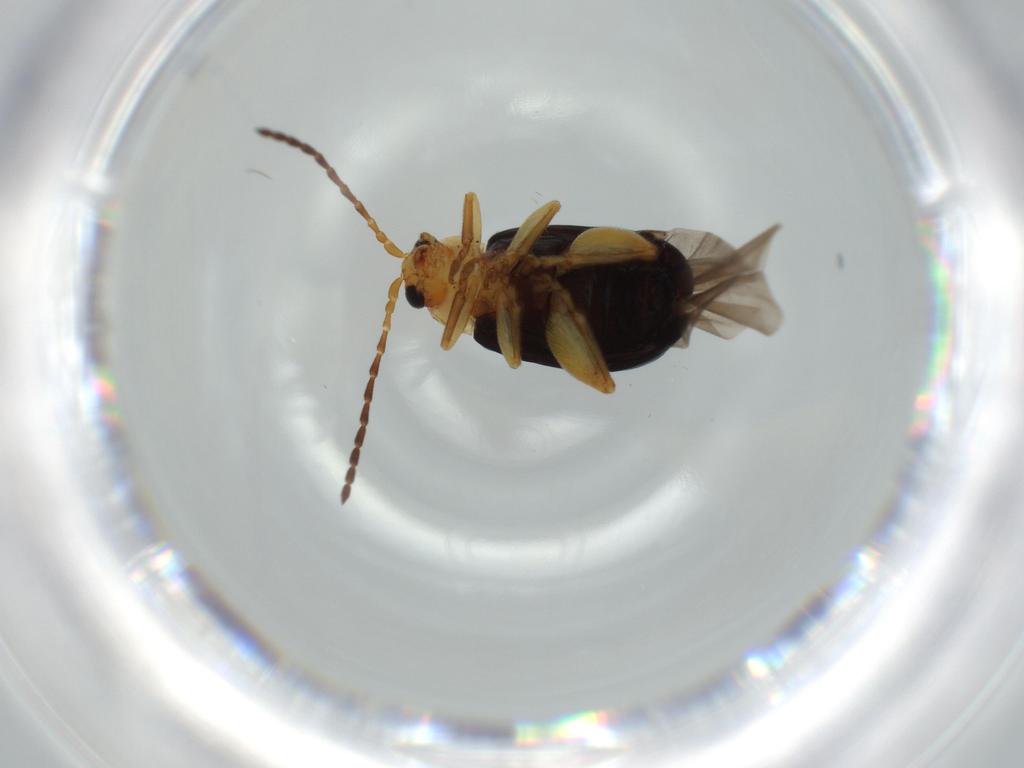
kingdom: Animalia
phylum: Arthropoda
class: Insecta
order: Coleoptera
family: Chrysomelidae
